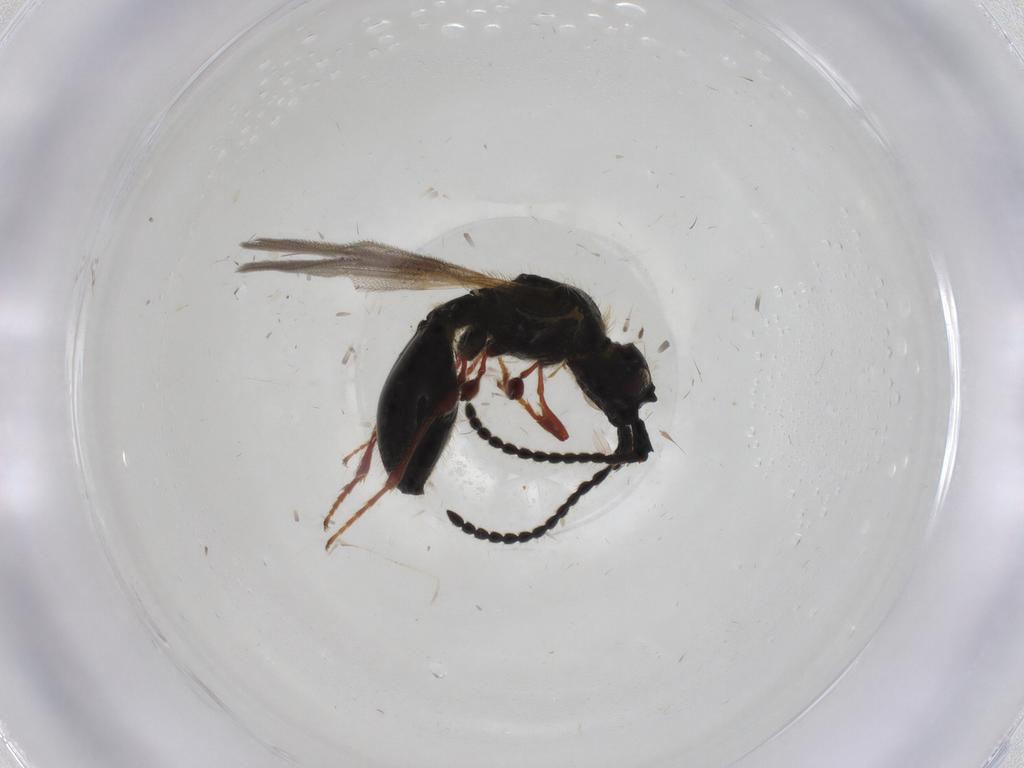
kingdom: Animalia
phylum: Arthropoda
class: Insecta
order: Hymenoptera
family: Diapriidae
